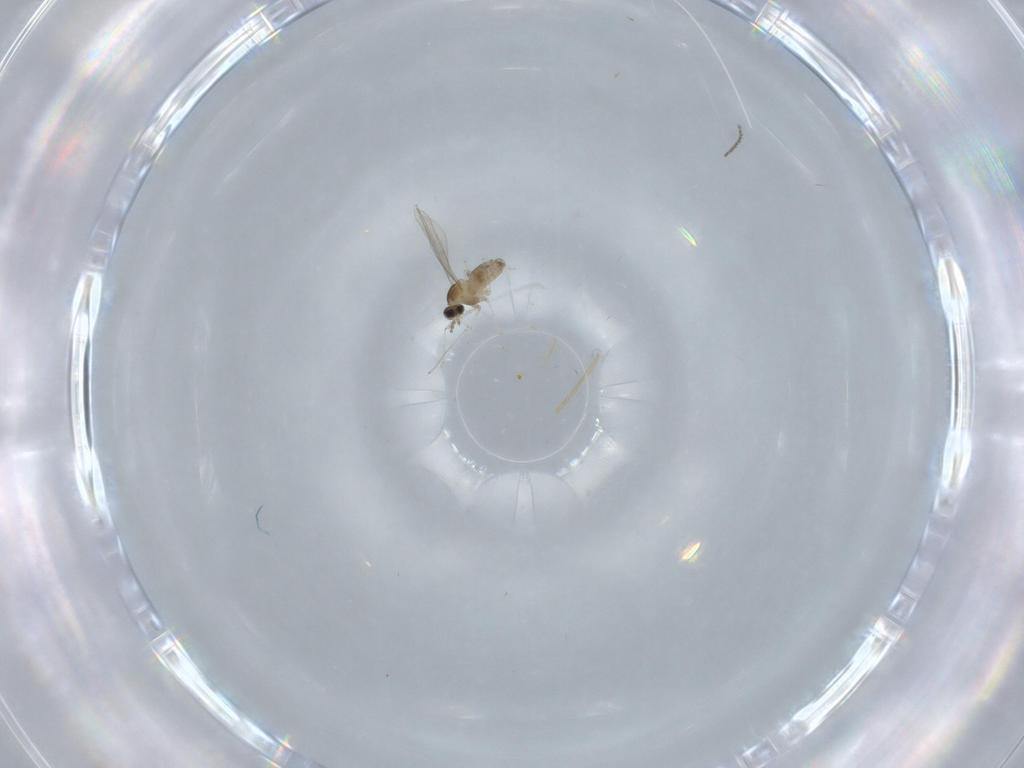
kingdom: Animalia
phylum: Arthropoda
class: Insecta
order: Diptera
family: Cecidomyiidae
